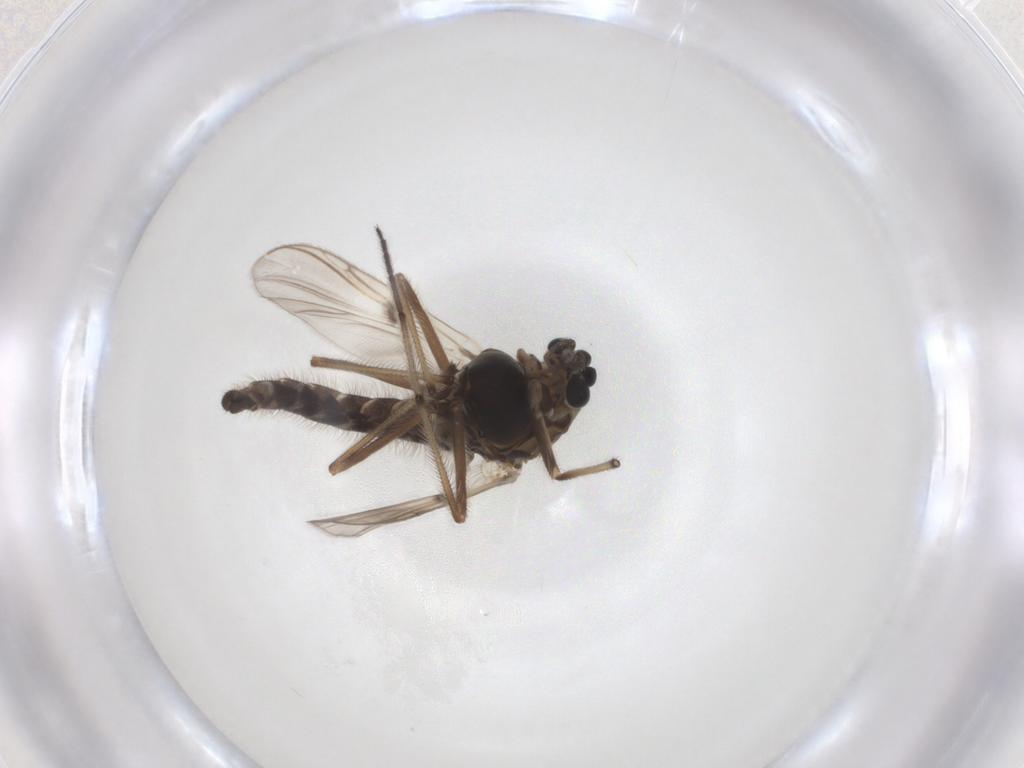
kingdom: Animalia
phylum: Arthropoda
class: Insecta
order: Diptera
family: Chironomidae
